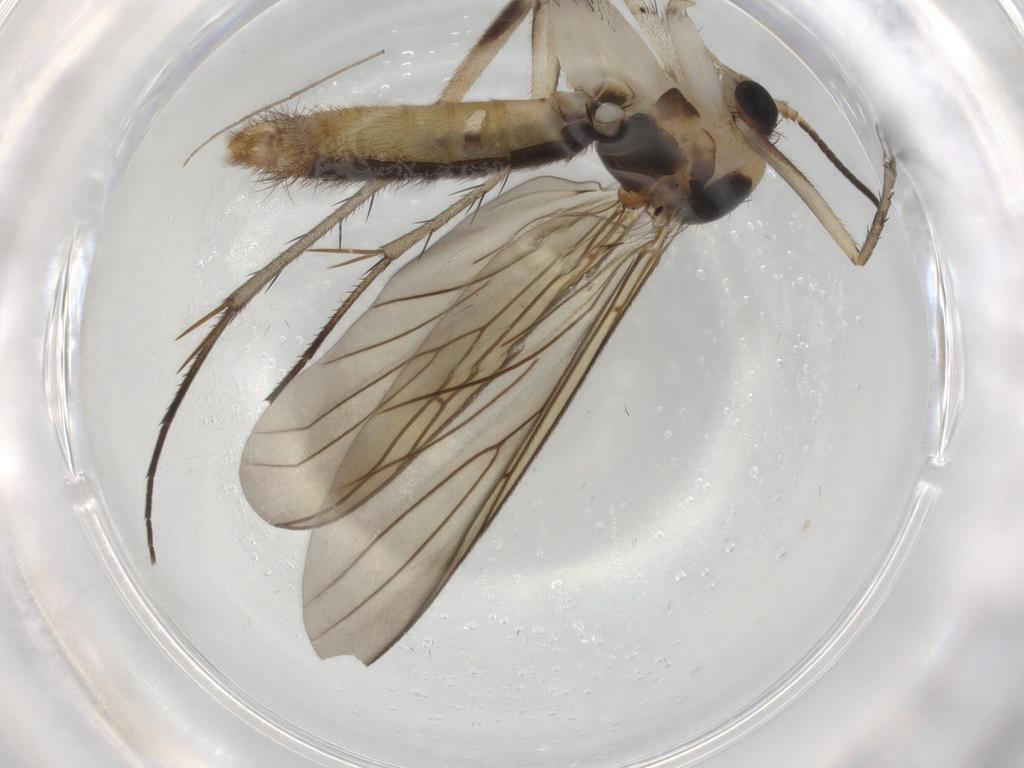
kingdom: Animalia
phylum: Arthropoda
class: Insecta
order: Diptera
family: Mycetophilidae
